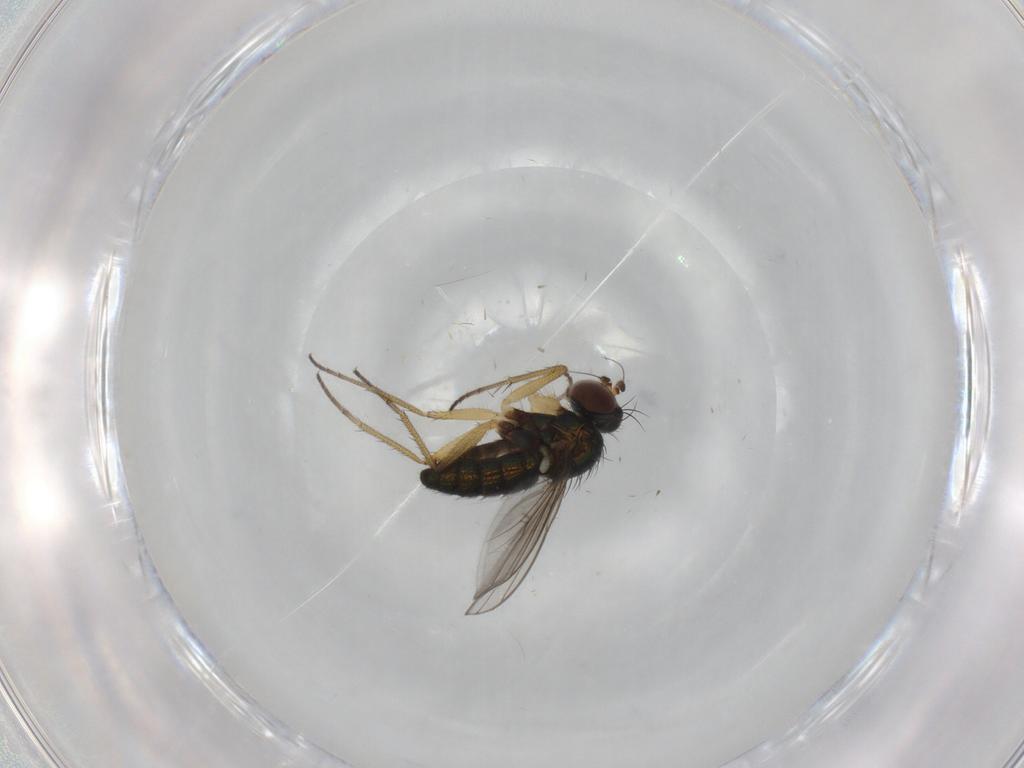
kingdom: Animalia
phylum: Arthropoda
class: Insecta
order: Diptera
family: Dolichopodidae
